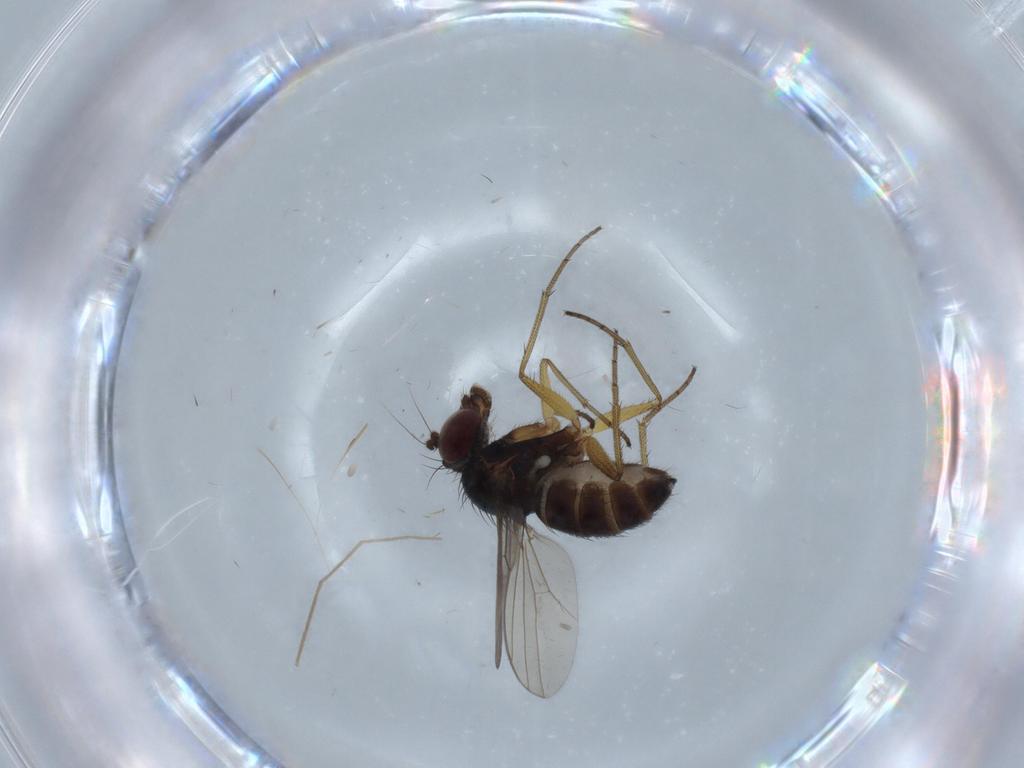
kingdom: Animalia
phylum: Arthropoda
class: Insecta
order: Diptera
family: Dolichopodidae
